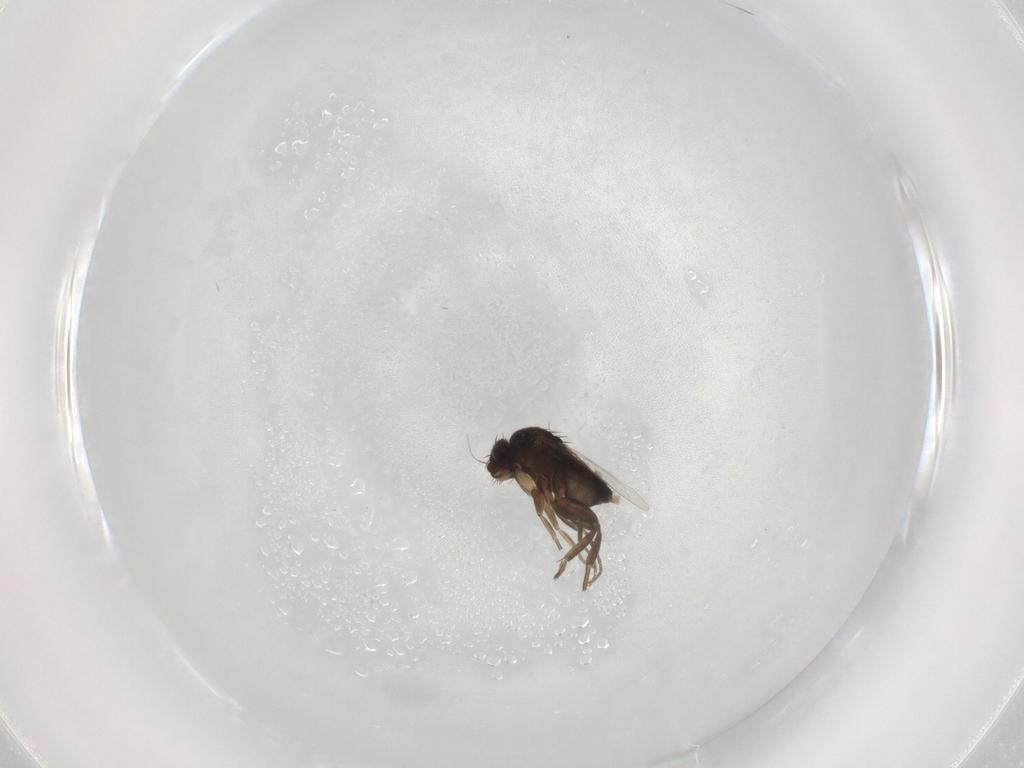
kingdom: Animalia
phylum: Arthropoda
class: Insecta
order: Diptera
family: Phoridae
